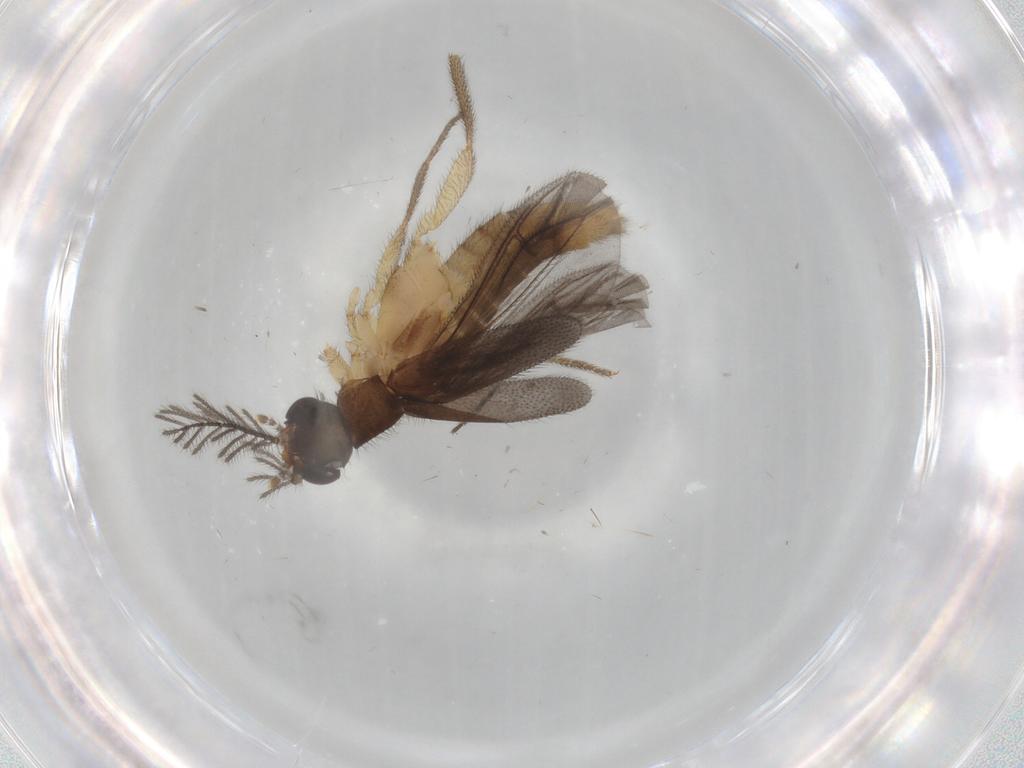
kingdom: Animalia
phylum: Arthropoda
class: Insecta
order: Coleoptera
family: Phengodidae
